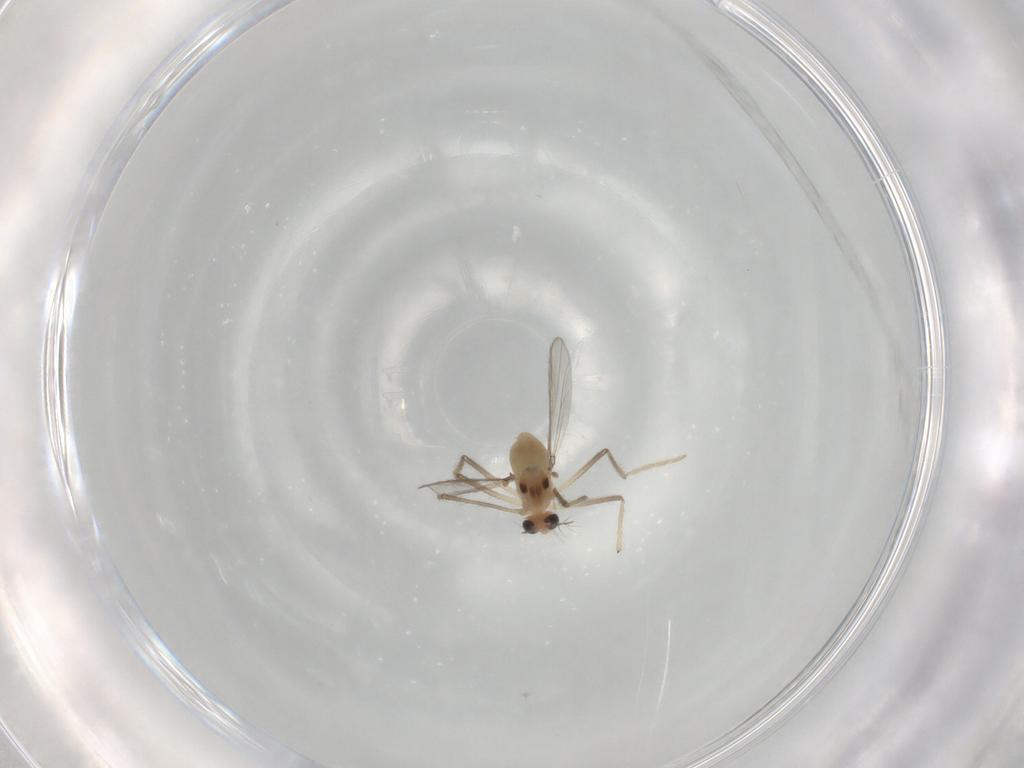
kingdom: Animalia
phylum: Arthropoda
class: Insecta
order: Diptera
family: Chironomidae
